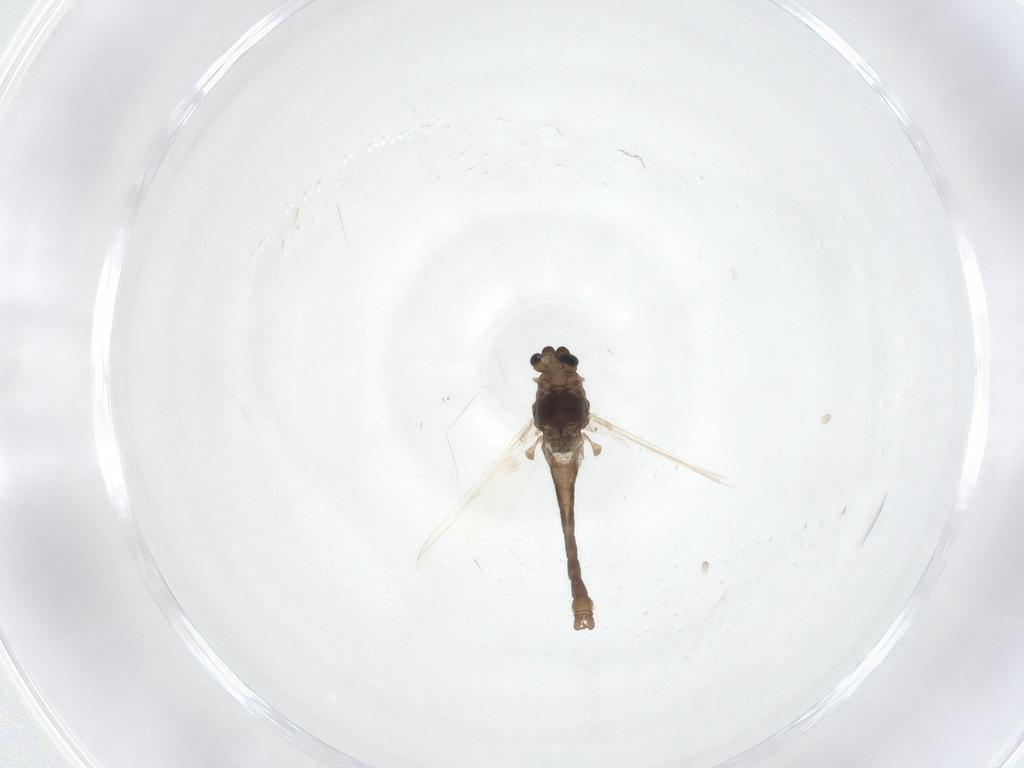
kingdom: Animalia
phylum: Arthropoda
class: Insecta
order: Diptera
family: Chironomidae
